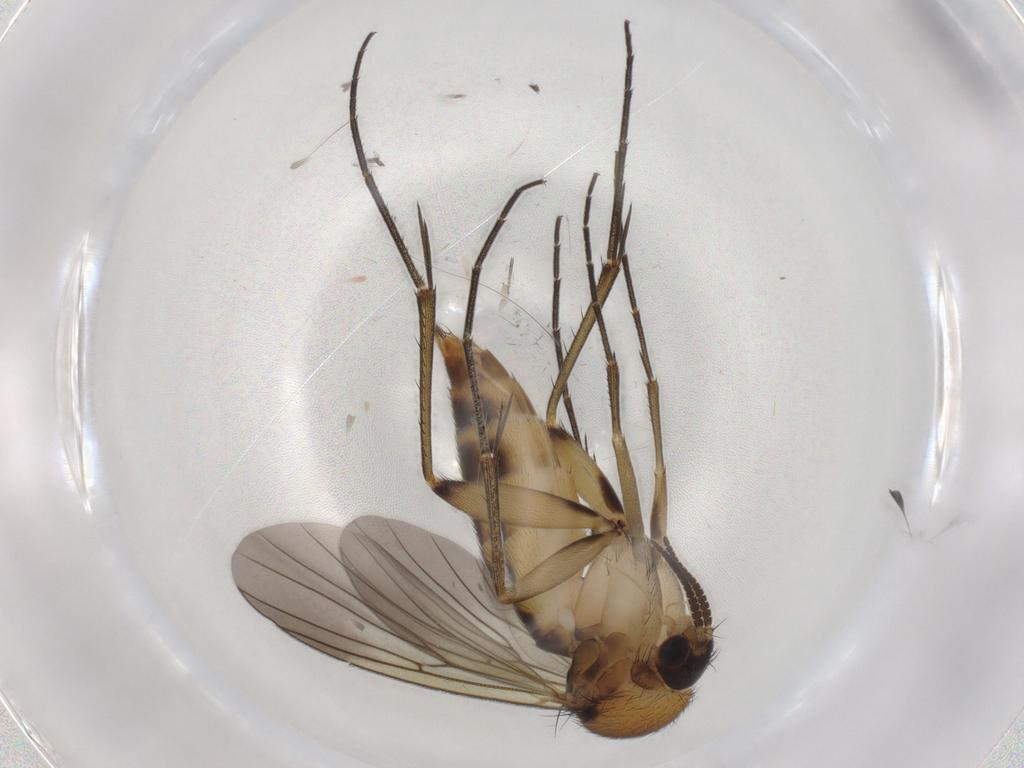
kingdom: Animalia
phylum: Arthropoda
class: Insecta
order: Diptera
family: Mycetophilidae
